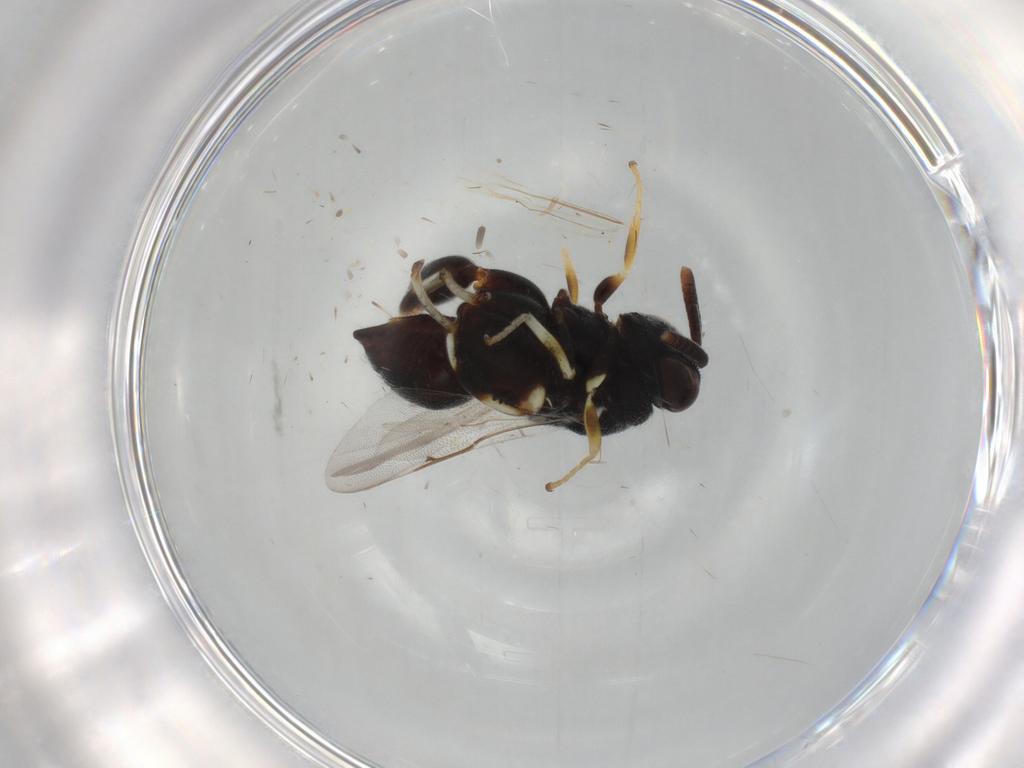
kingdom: Animalia
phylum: Arthropoda
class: Insecta
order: Hymenoptera
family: Chalcididae
